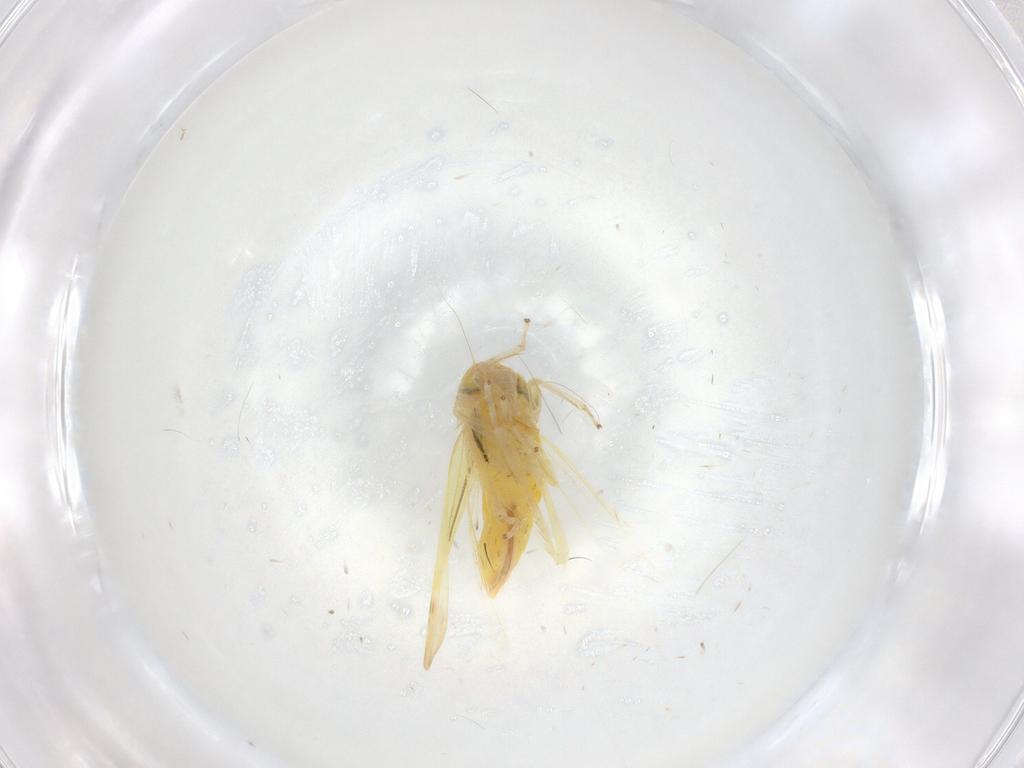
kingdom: Animalia
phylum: Arthropoda
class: Insecta
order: Hemiptera
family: Cicadellidae
